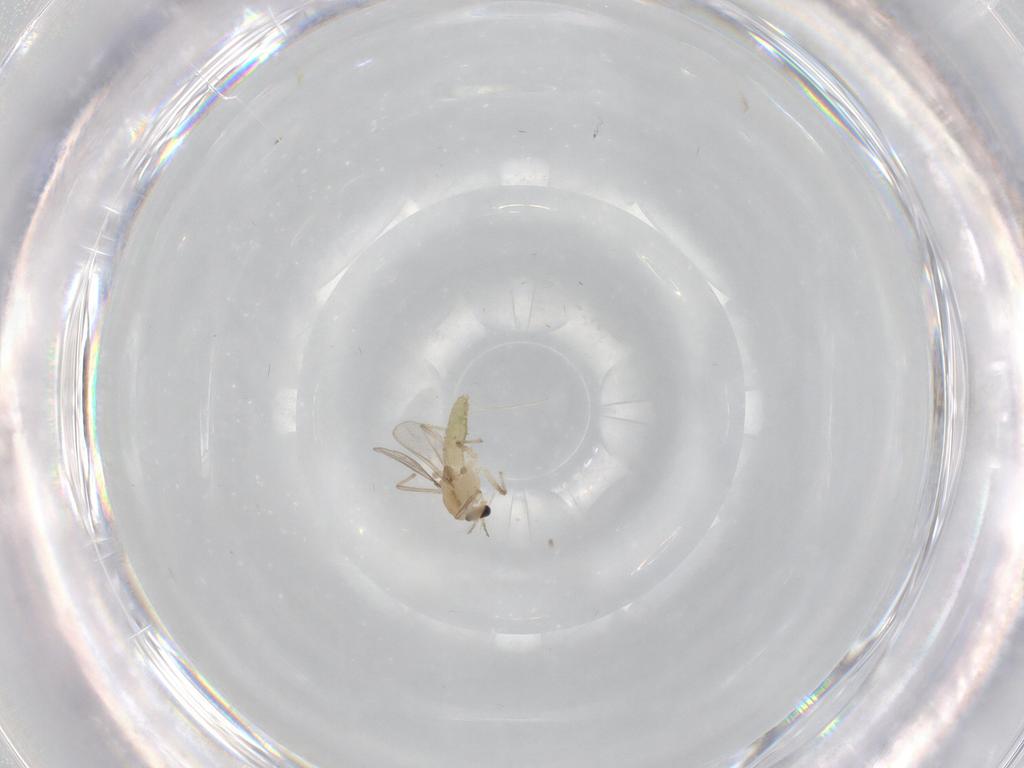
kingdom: Animalia
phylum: Arthropoda
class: Insecta
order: Diptera
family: Chironomidae
